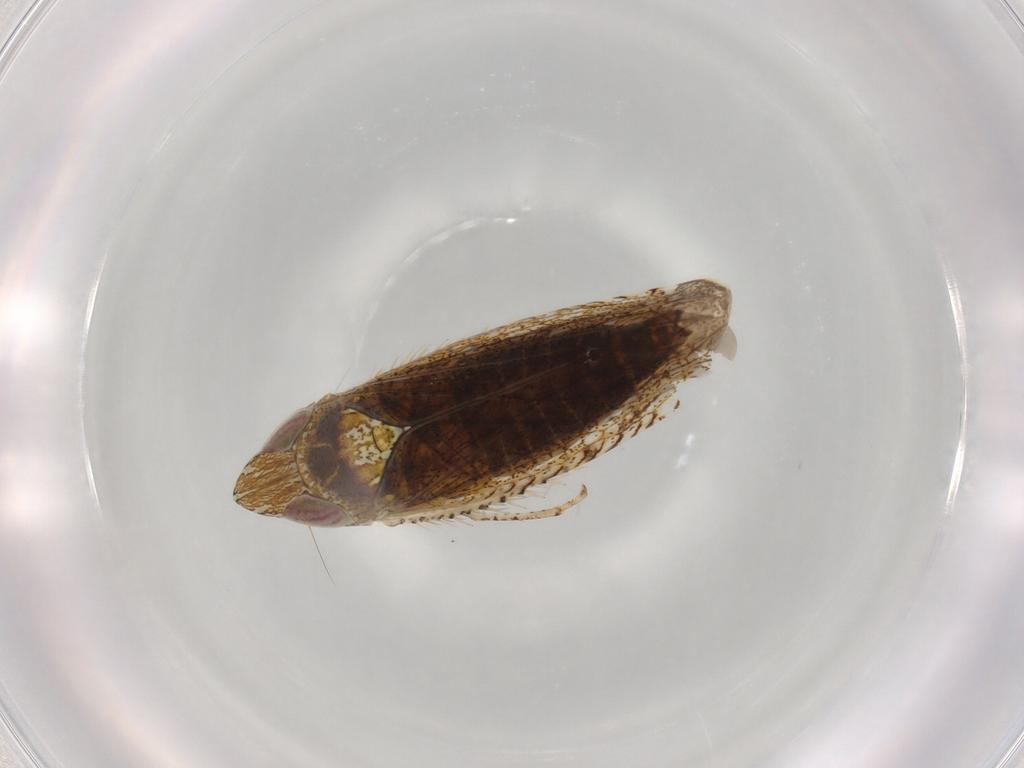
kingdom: Animalia
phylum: Arthropoda
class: Insecta
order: Hemiptera
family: Cicadellidae
